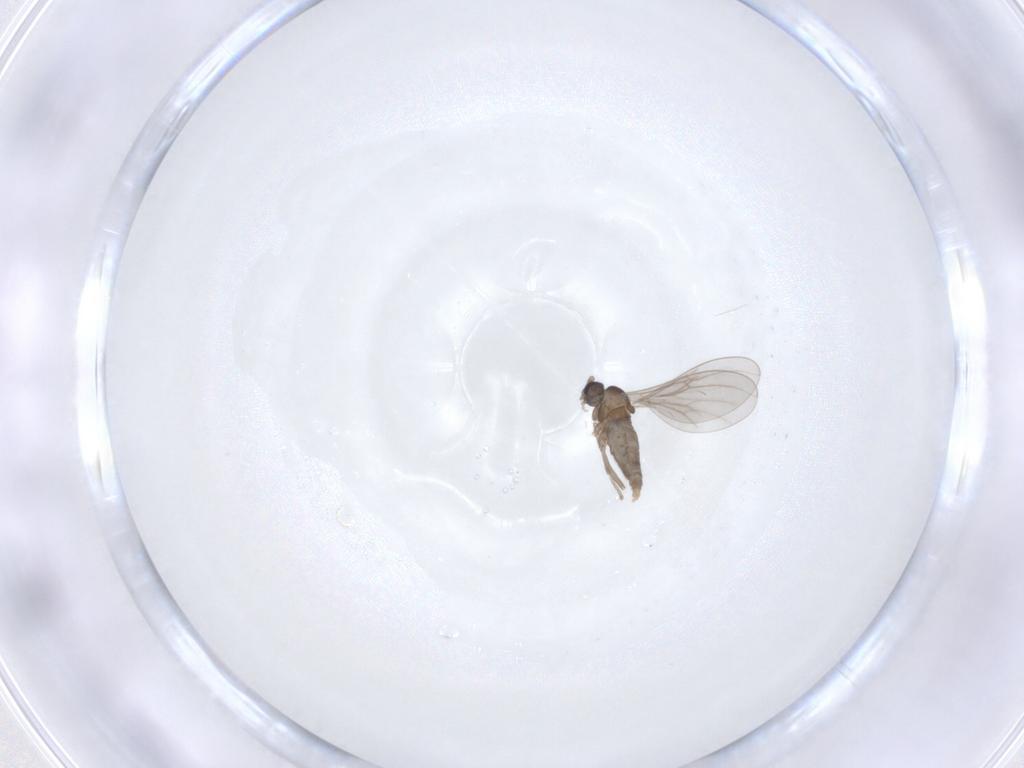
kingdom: Animalia
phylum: Arthropoda
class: Insecta
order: Diptera
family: Cecidomyiidae
